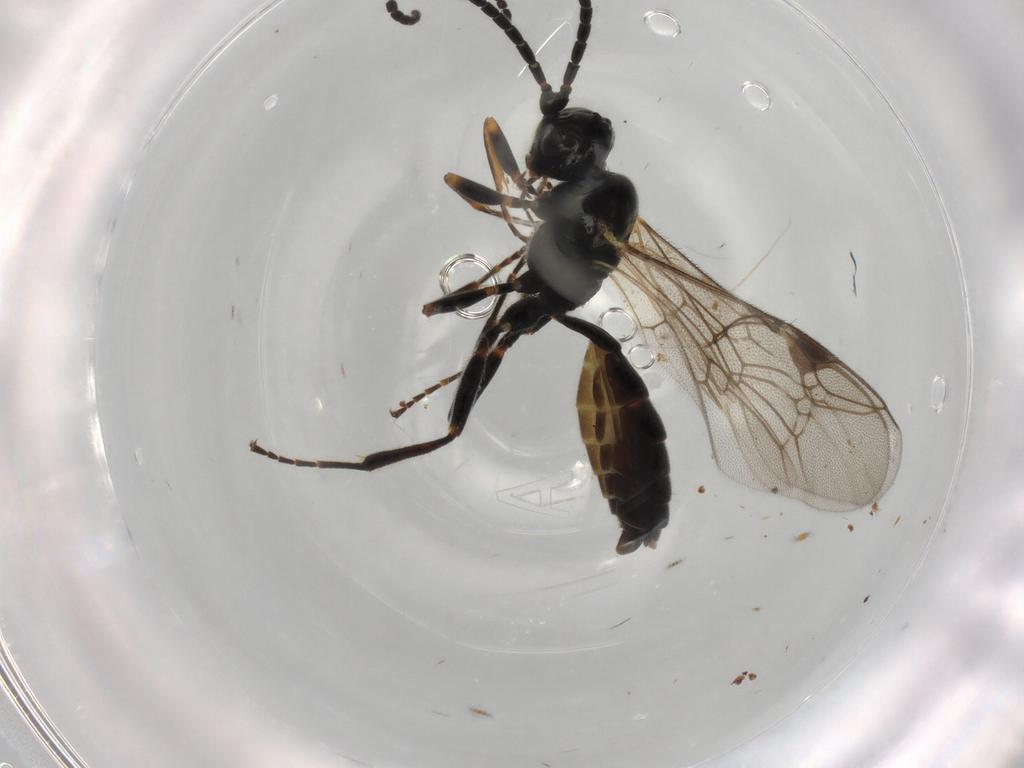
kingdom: Animalia
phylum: Arthropoda
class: Insecta
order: Hymenoptera
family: Ichneumonidae
